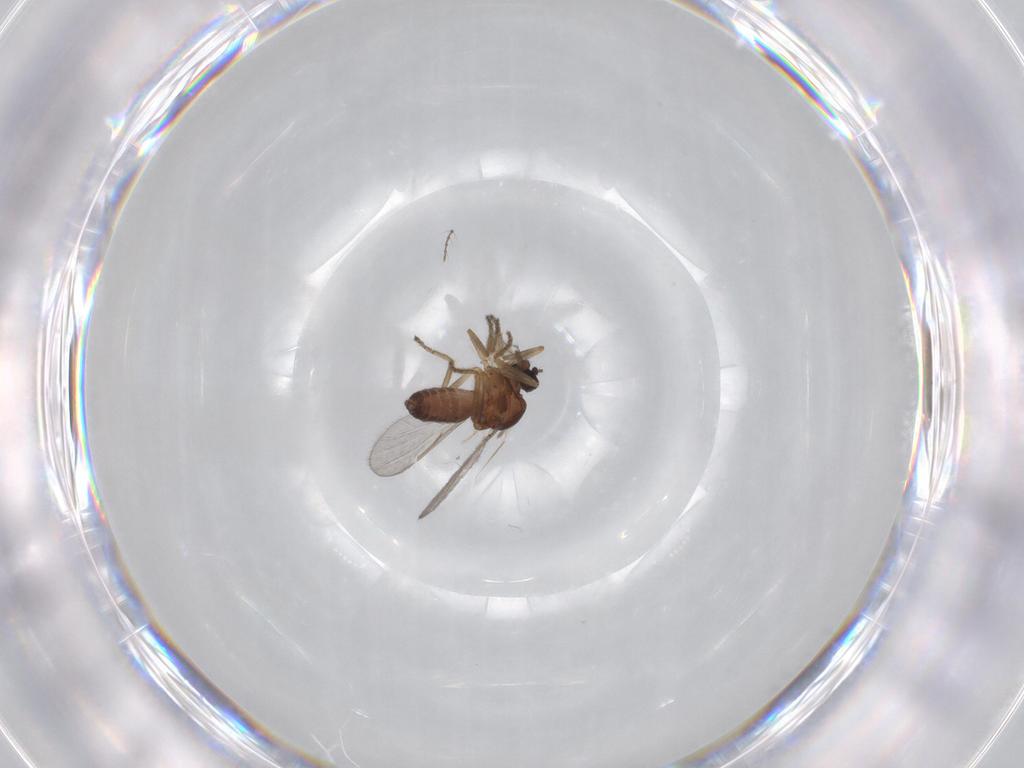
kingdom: Animalia
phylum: Arthropoda
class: Insecta
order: Diptera
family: Ceratopogonidae
